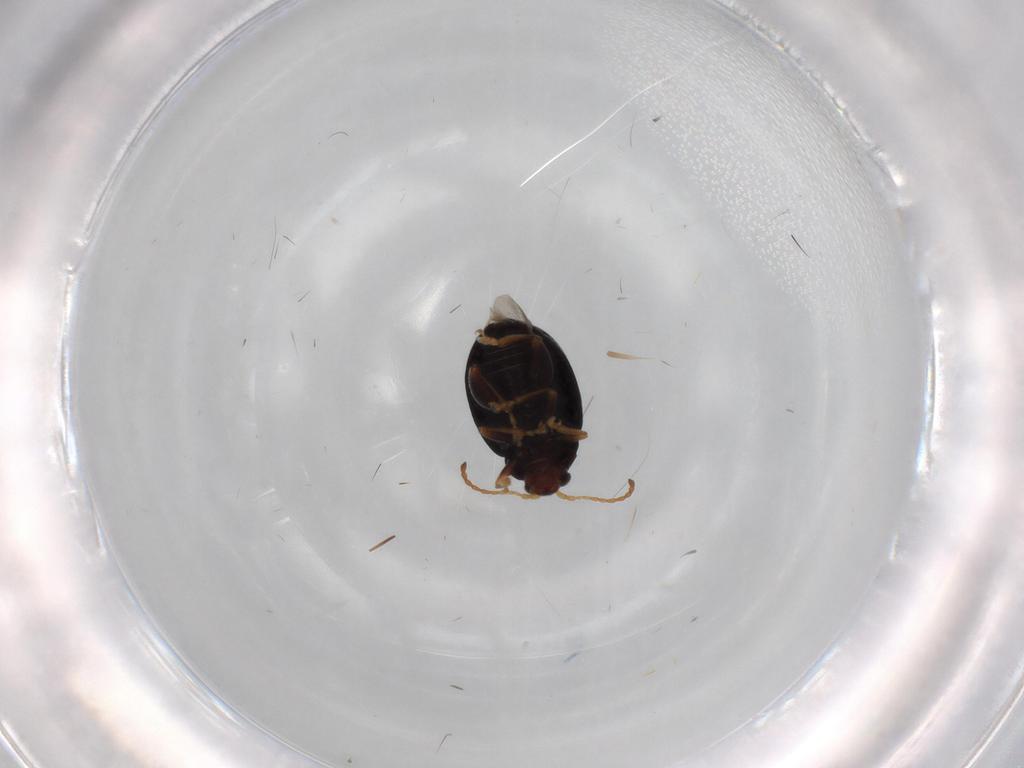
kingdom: Animalia
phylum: Arthropoda
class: Insecta
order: Coleoptera
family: Chrysomelidae
